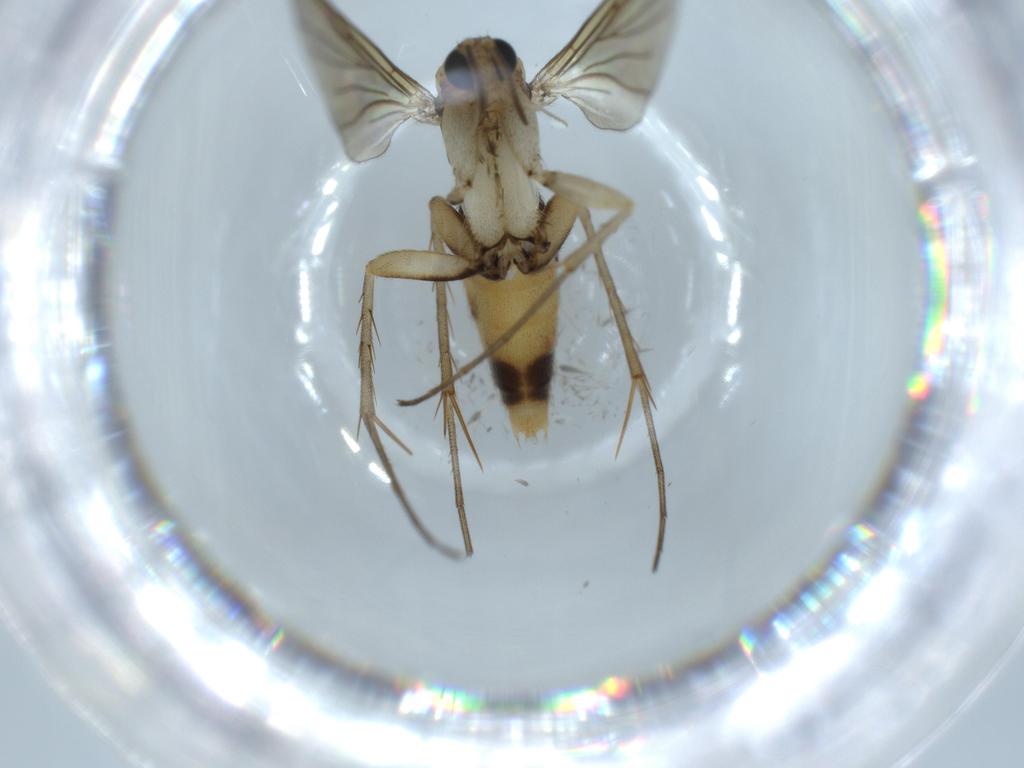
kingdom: Animalia
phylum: Arthropoda
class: Insecta
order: Diptera
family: Mycetophilidae
